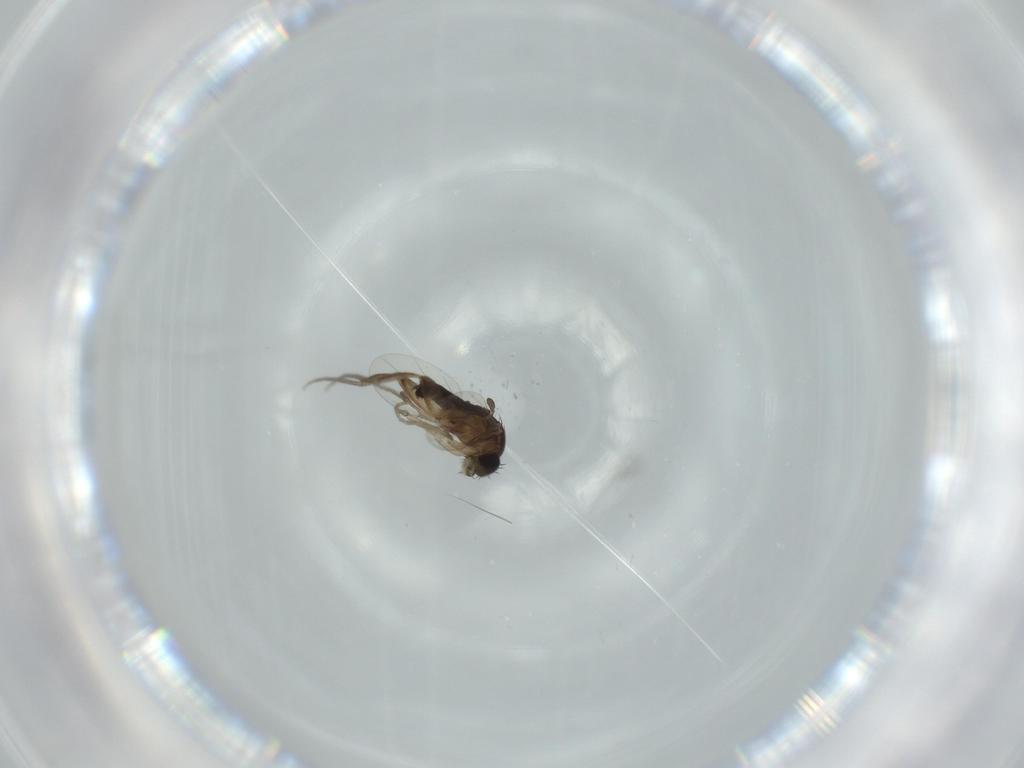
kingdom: Animalia
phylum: Arthropoda
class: Insecta
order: Diptera
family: Phoridae
